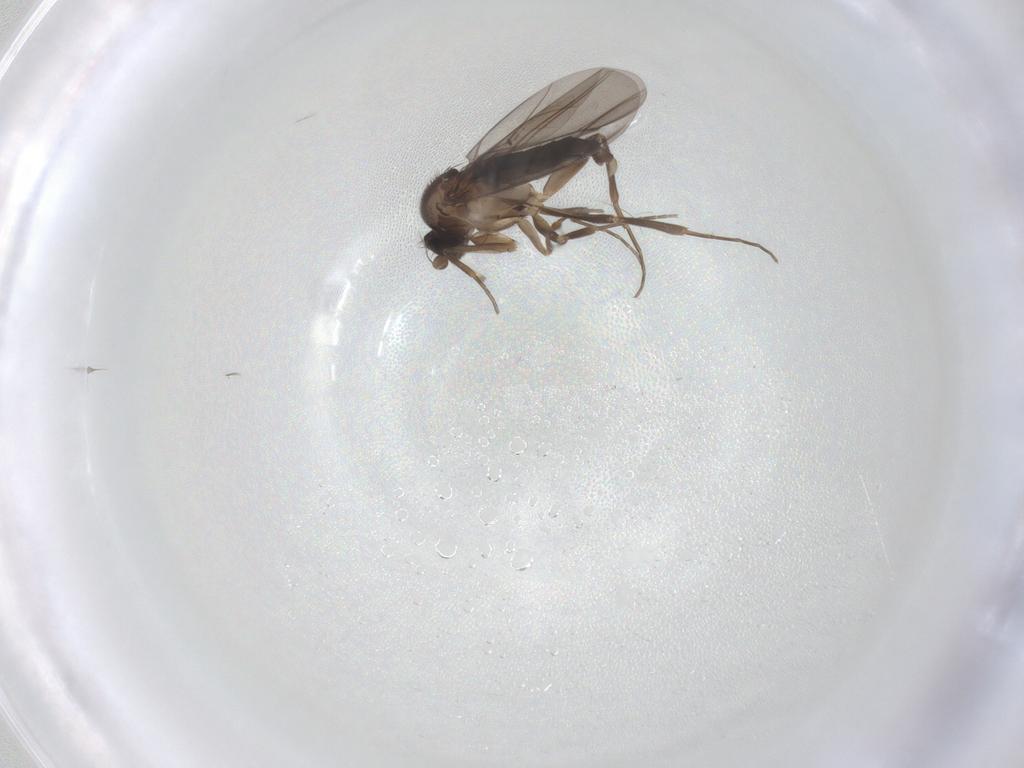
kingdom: Animalia
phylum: Arthropoda
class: Insecta
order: Diptera
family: Phoridae
